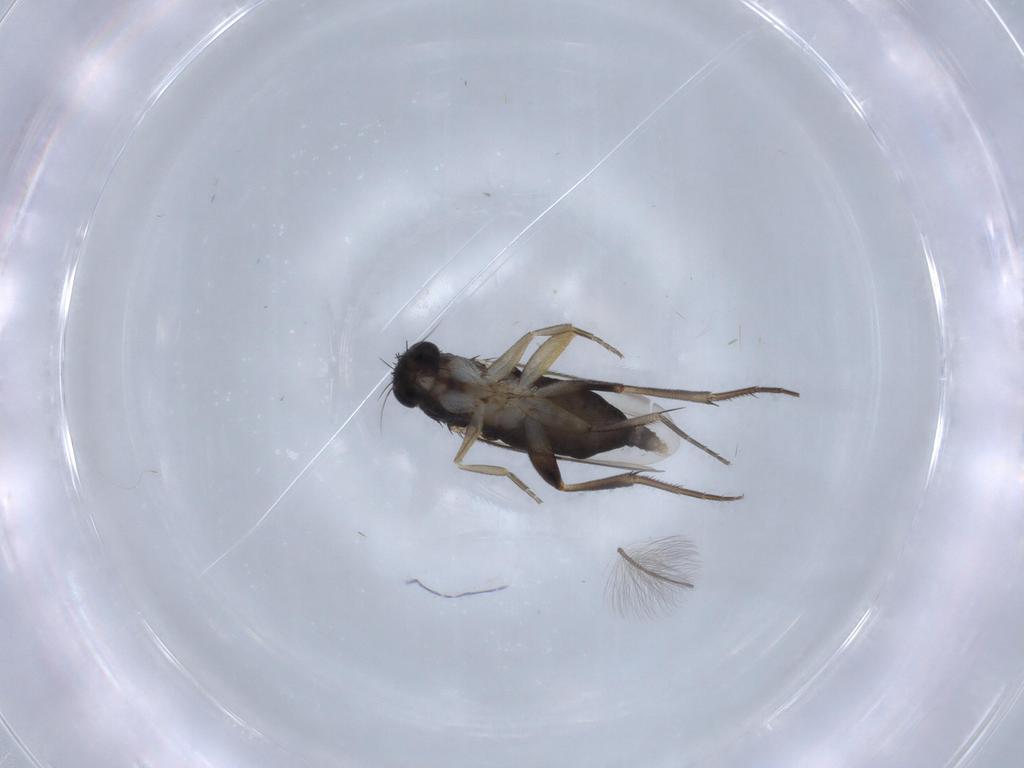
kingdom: Animalia
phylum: Arthropoda
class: Insecta
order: Diptera
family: Phoridae
